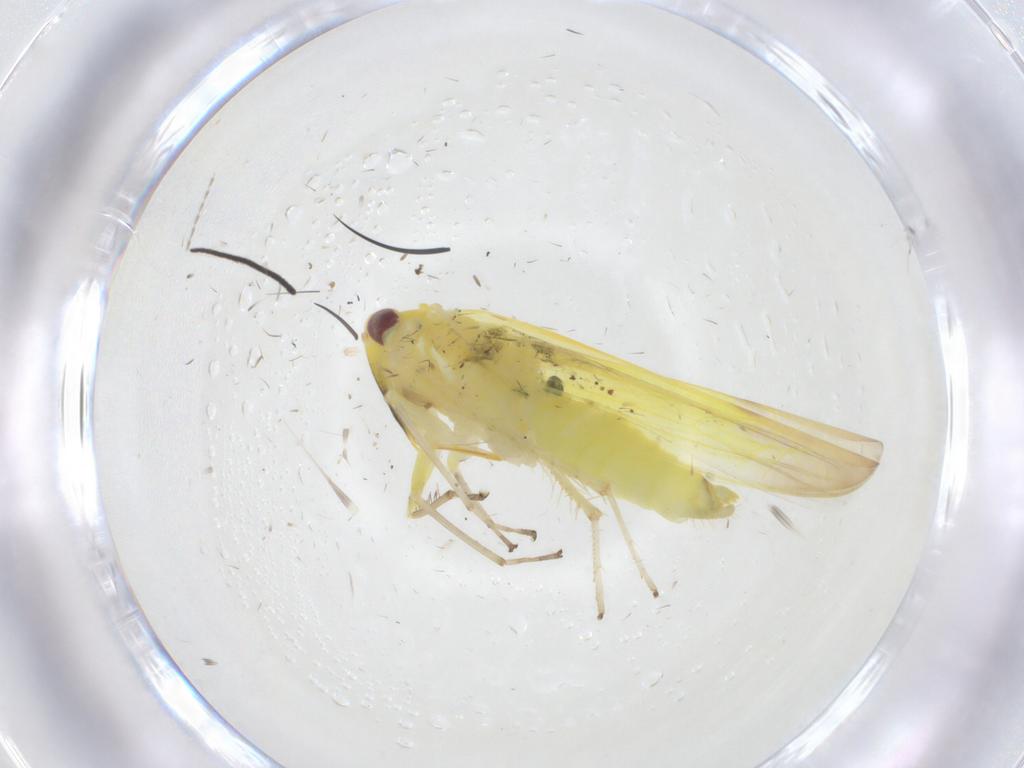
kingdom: Animalia
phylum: Arthropoda
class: Insecta
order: Hemiptera
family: Cicadellidae
